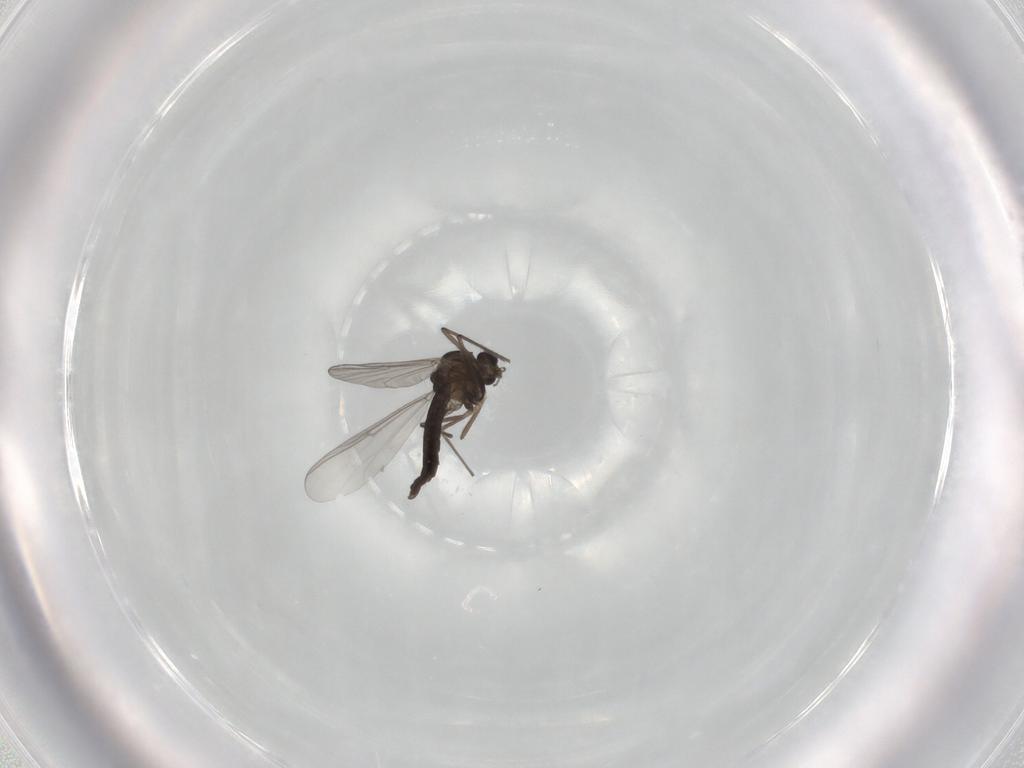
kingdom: Animalia
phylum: Arthropoda
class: Insecta
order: Diptera
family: Chironomidae
